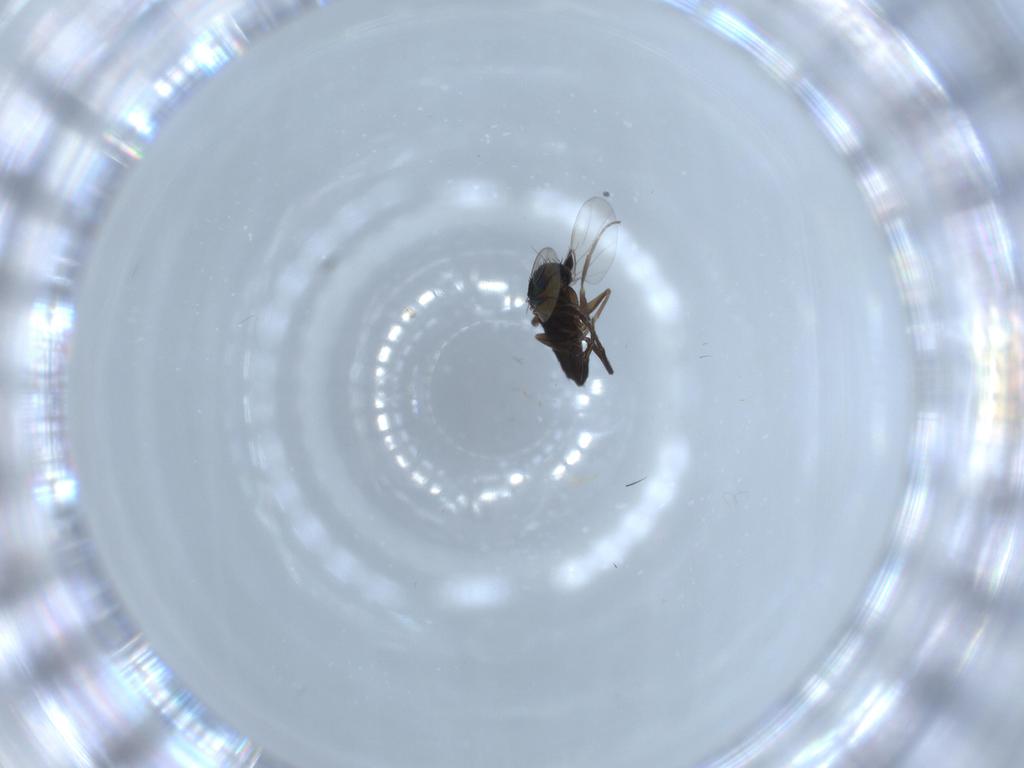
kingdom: Animalia
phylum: Arthropoda
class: Insecta
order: Diptera
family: Phoridae
